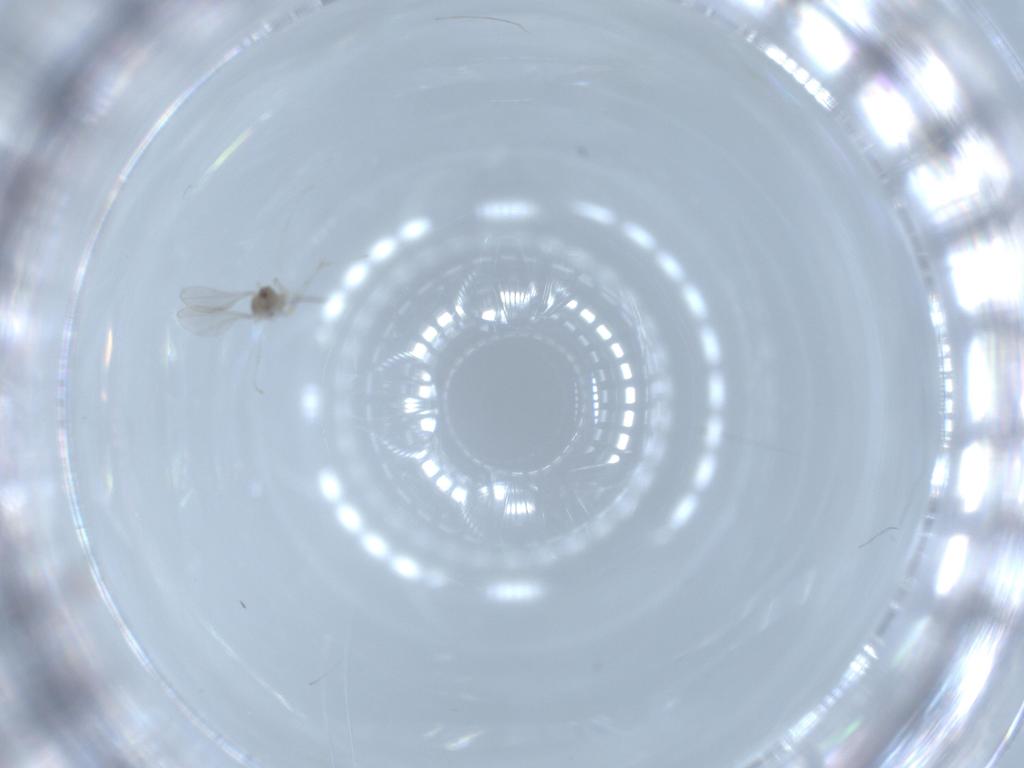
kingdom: Animalia
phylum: Arthropoda
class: Insecta
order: Diptera
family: Cecidomyiidae
